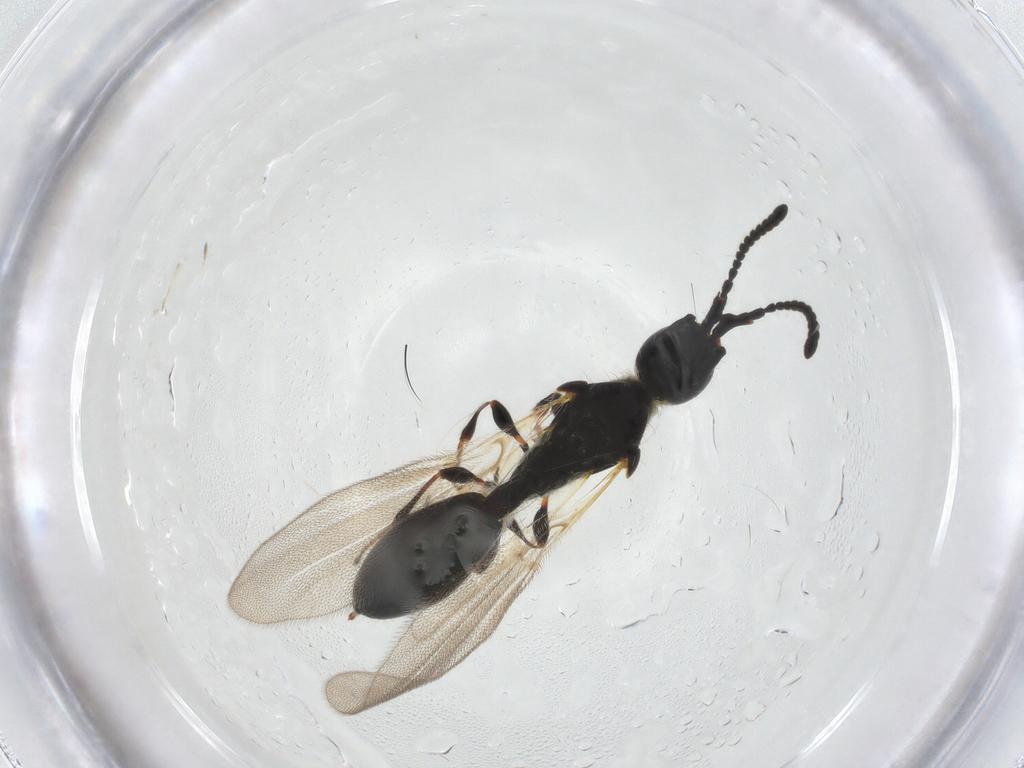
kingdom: Animalia
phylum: Arthropoda
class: Insecta
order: Hymenoptera
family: Diapriidae
